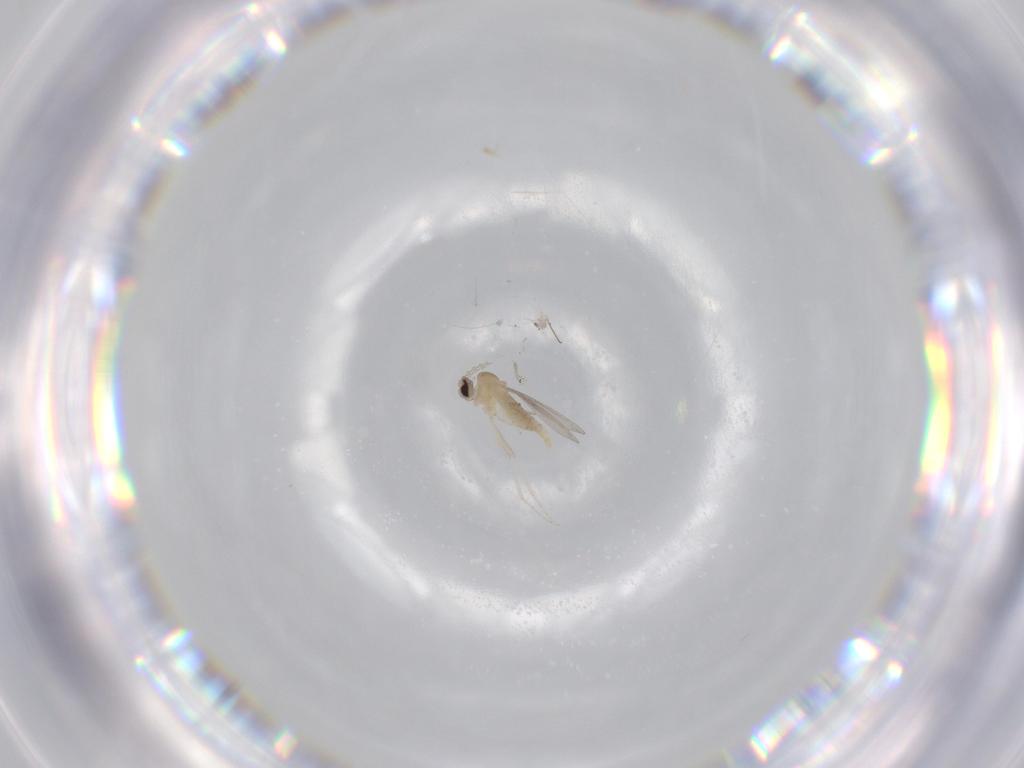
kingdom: Animalia
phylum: Arthropoda
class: Insecta
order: Diptera
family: Cecidomyiidae
